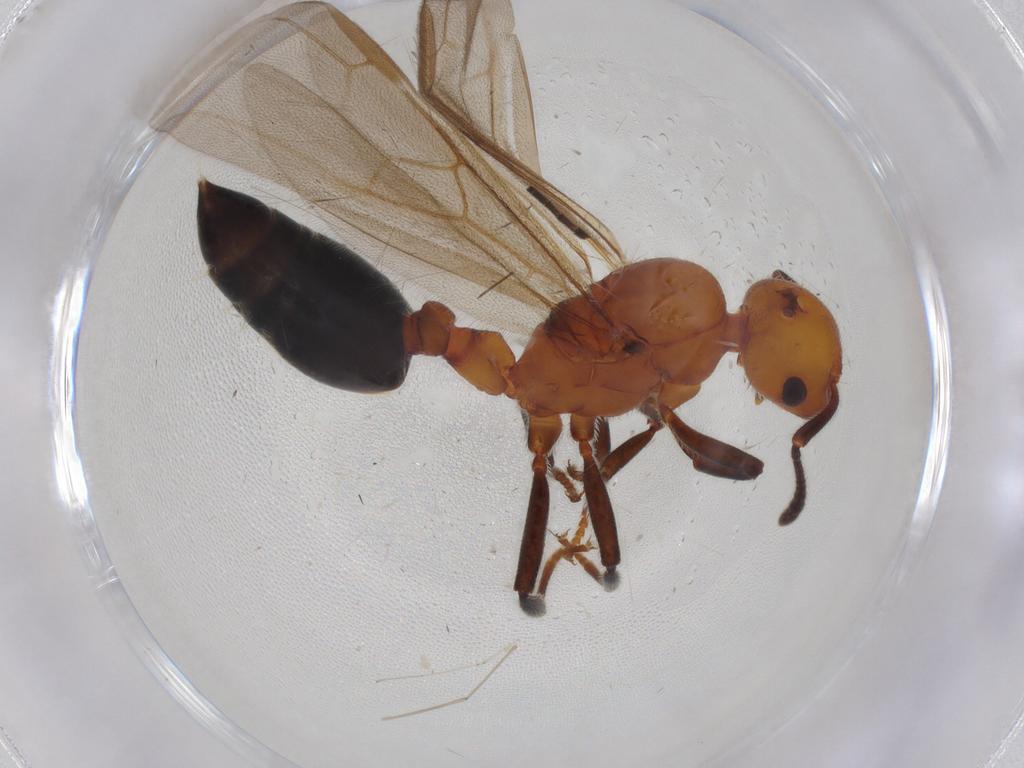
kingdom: Animalia
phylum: Arthropoda
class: Insecta
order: Hymenoptera
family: Formicidae
